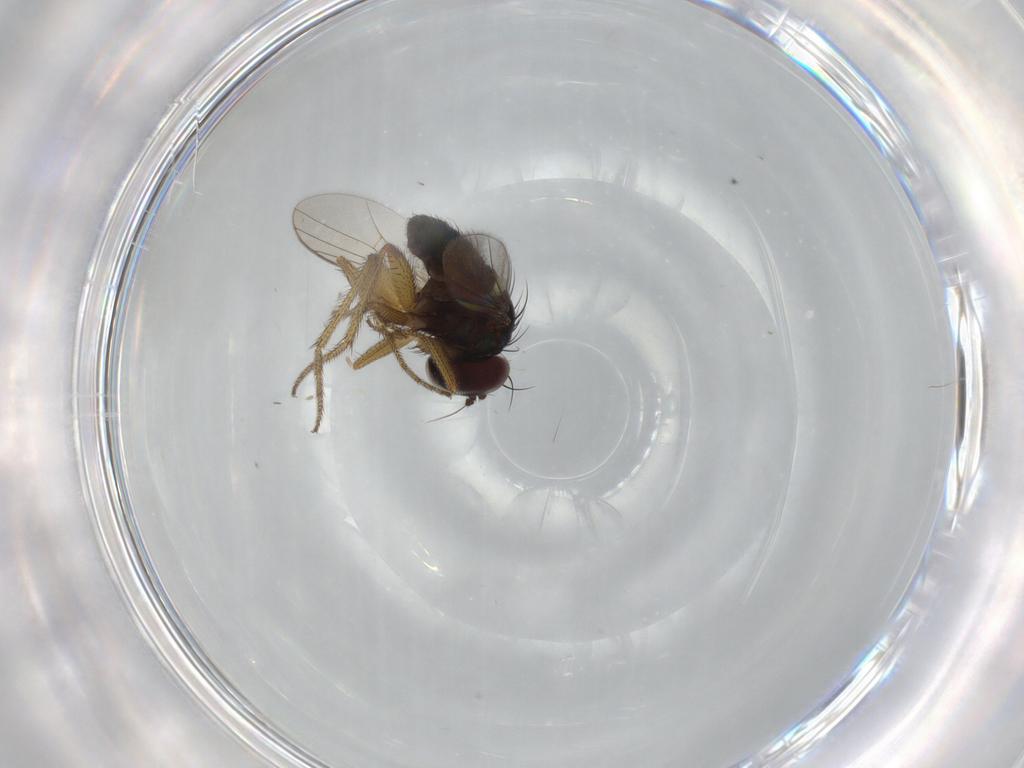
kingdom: Animalia
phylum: Arthropoda
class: Insecta
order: Diptera
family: Dolichopodidae
